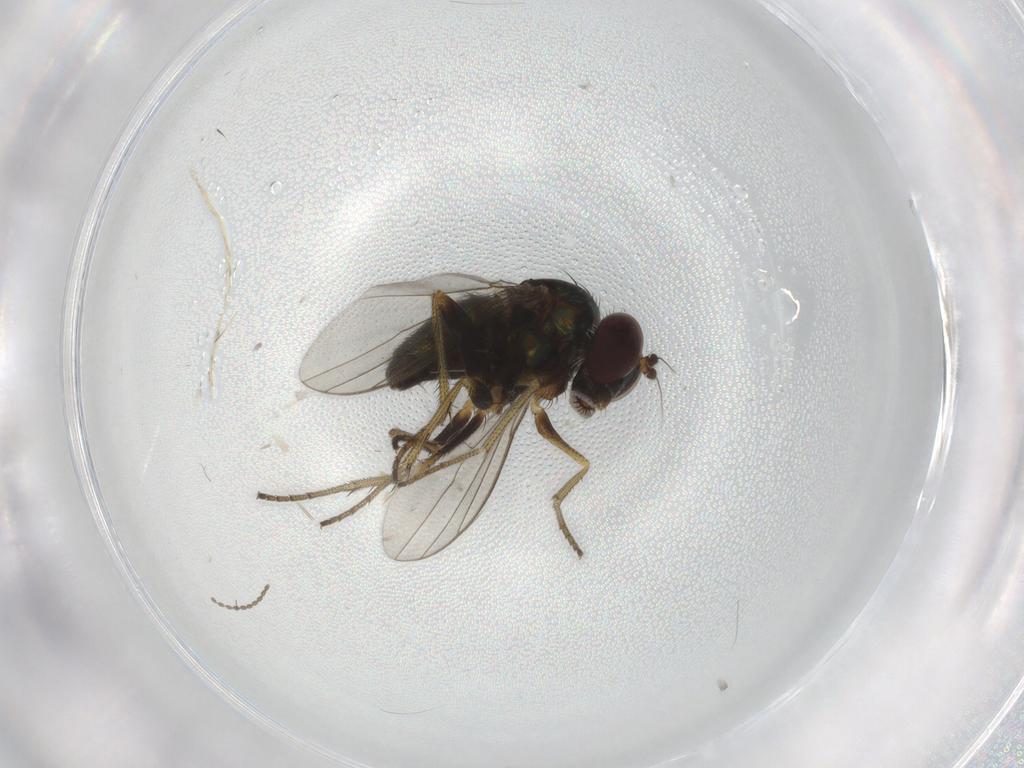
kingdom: Animalia
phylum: Arthropoda
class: Insecta
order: Diptera
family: Cecidomyiidae
